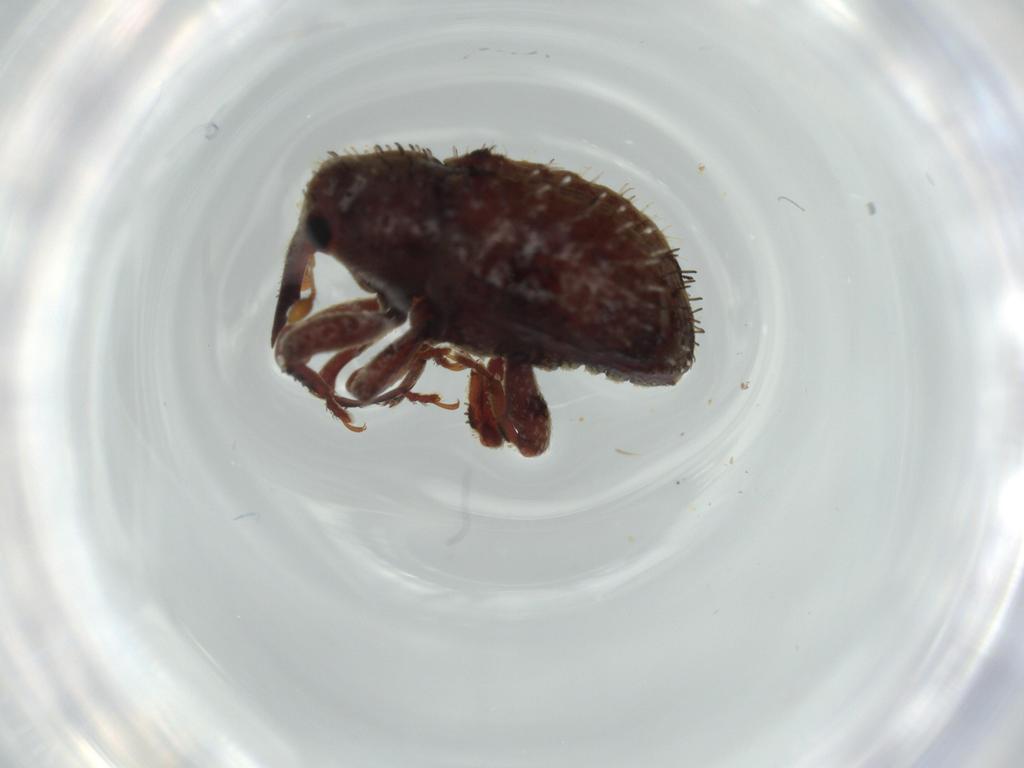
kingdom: Animalia
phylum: Arthropoda
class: Insecta
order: Coleoptera
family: Curculionidae
